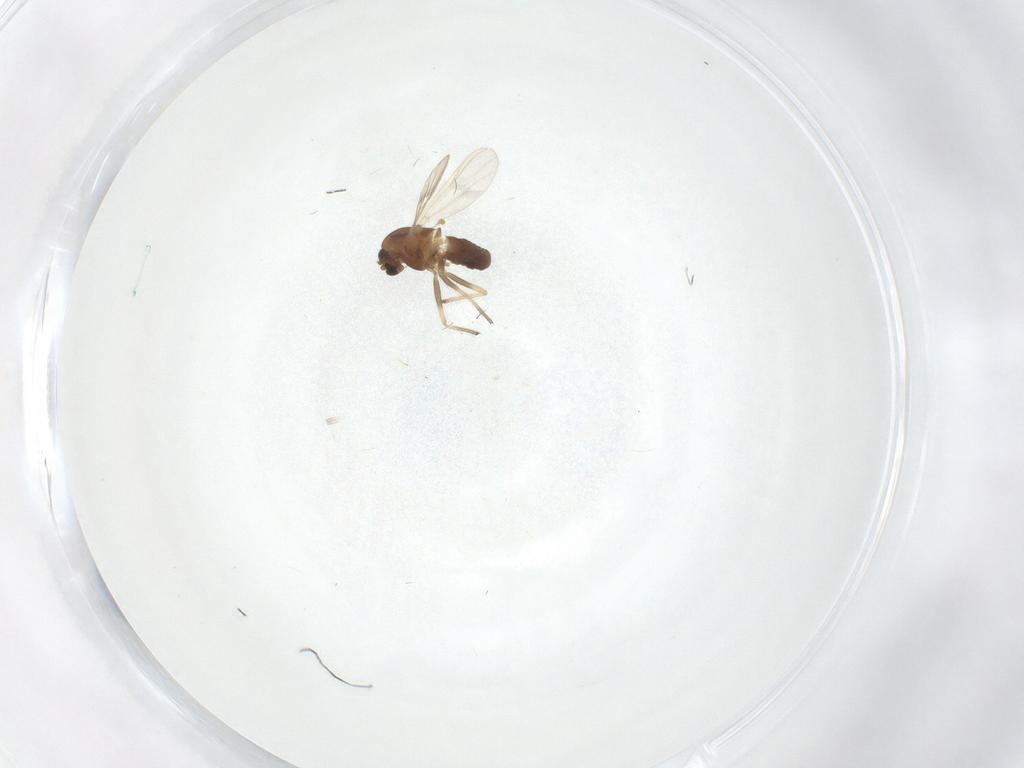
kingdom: Animalia
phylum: Arthropoda
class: Insecta
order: Diptera
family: Chironomidae
